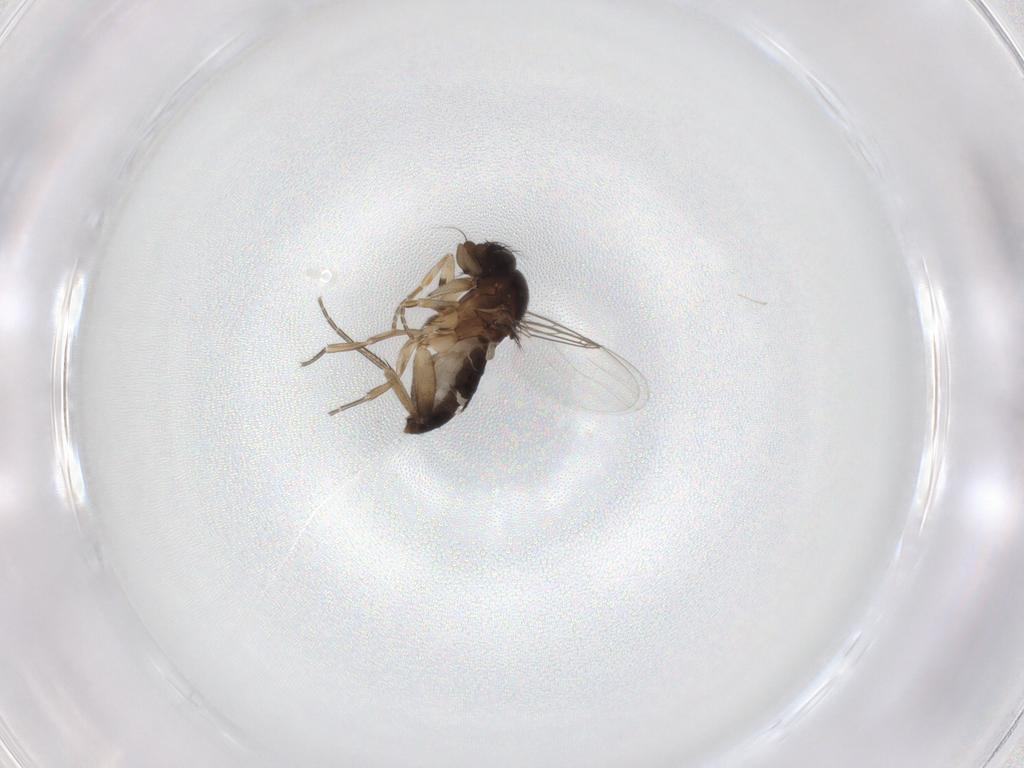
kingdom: Animalia
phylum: Arthropoda
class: Insecta
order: Diptera
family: Phoridae
